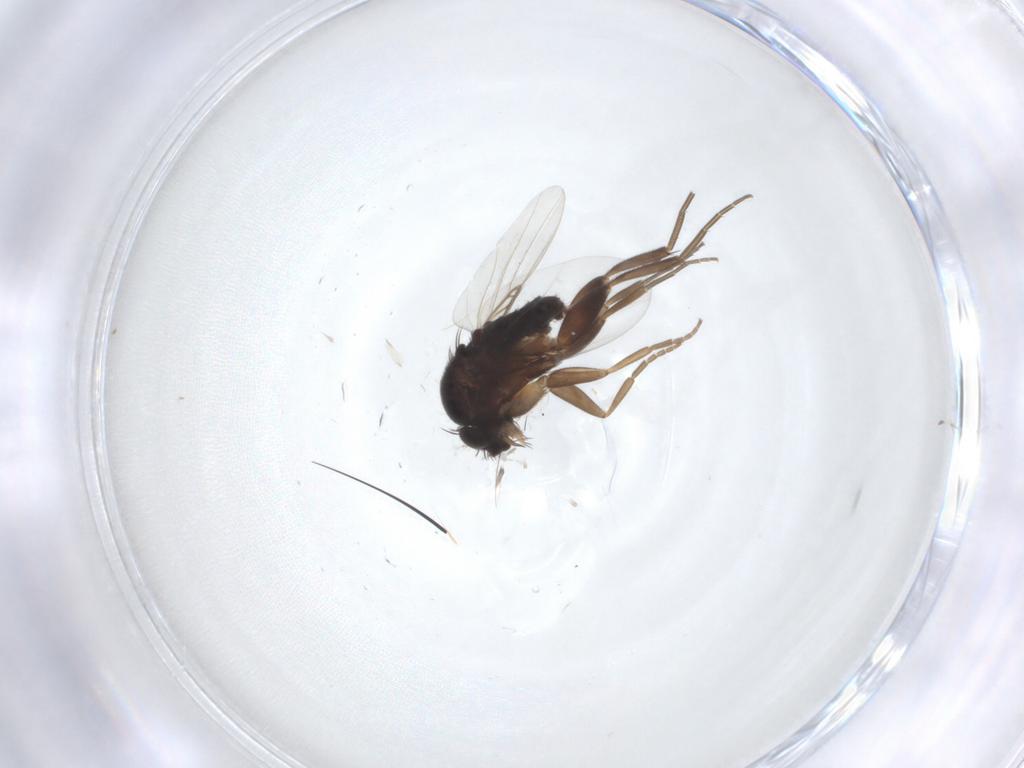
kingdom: Animalia
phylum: Arthropoda
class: Insecta
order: Diptera
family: Phoridae
